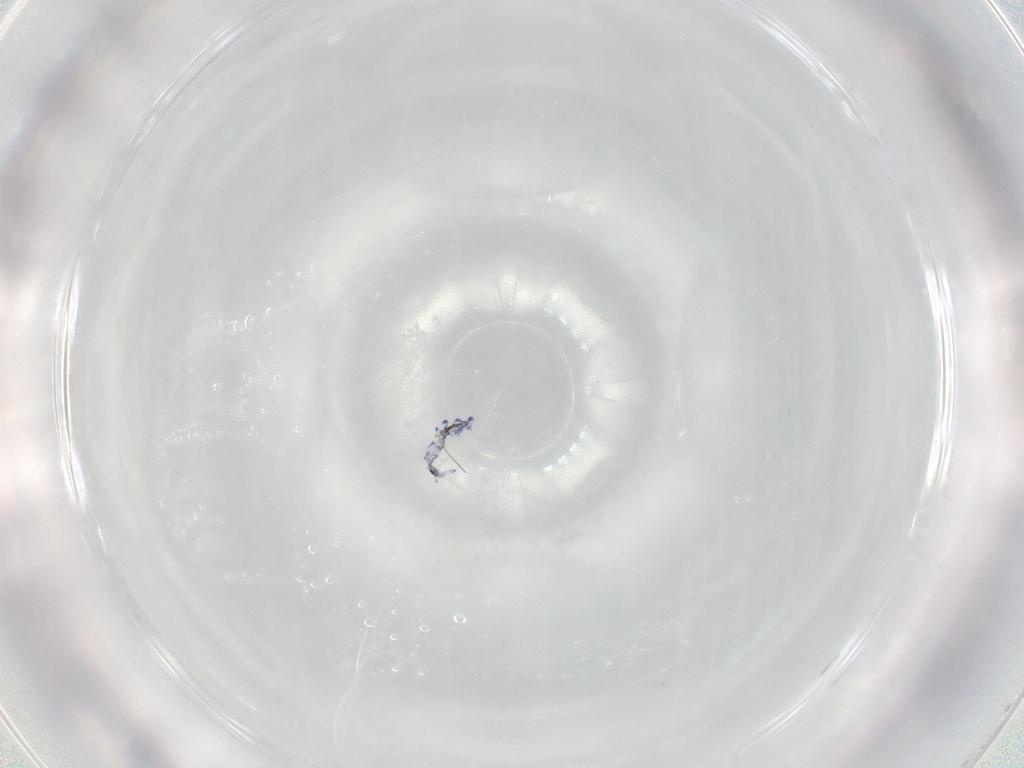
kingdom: Animalia
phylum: Arthropoda
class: Collembola
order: Entomobryomorpha
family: Entomobryidae
